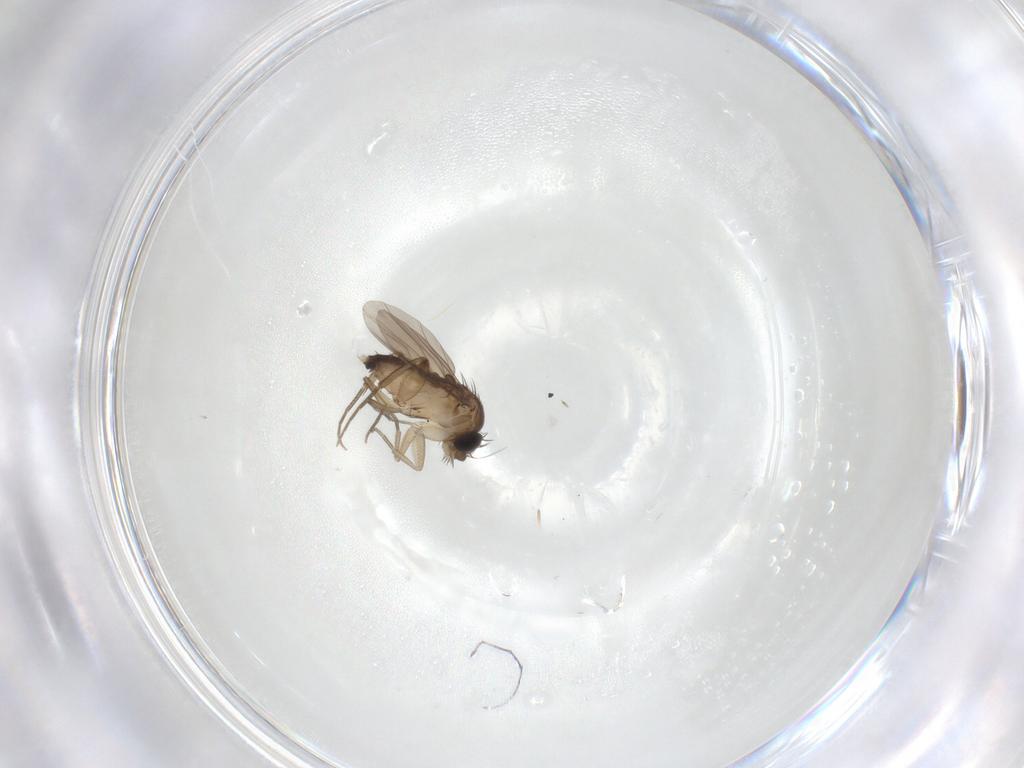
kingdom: Animalia
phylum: Arthropoda
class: Insecta
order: Diptera
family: Phoridae
